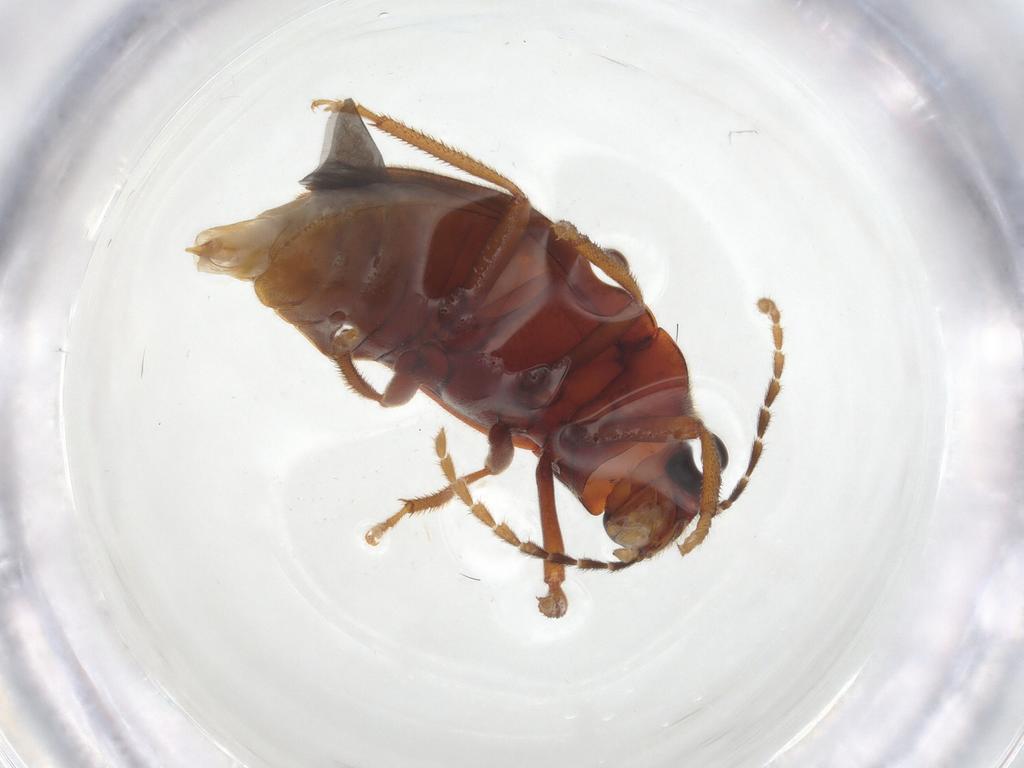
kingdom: Animalia
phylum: Arthropoda
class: Insecta
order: Coleoptera
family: Ptilodactylidae
